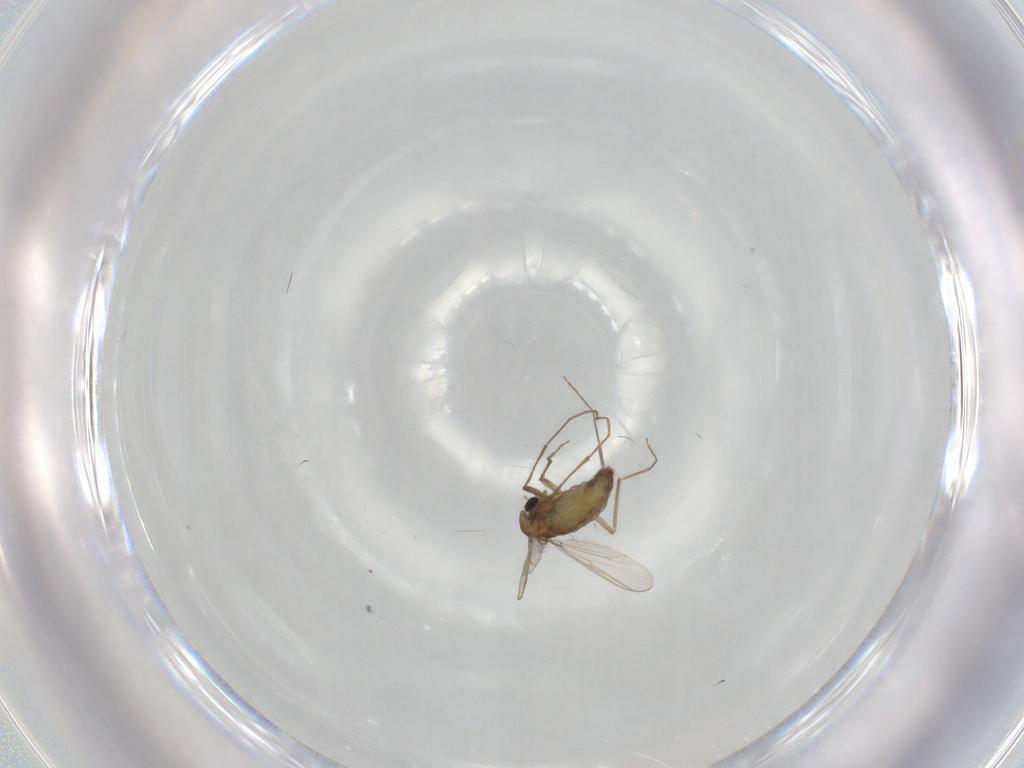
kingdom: Animalia
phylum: Arthropoda
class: Insecta
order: Diptera
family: Chironomidae
